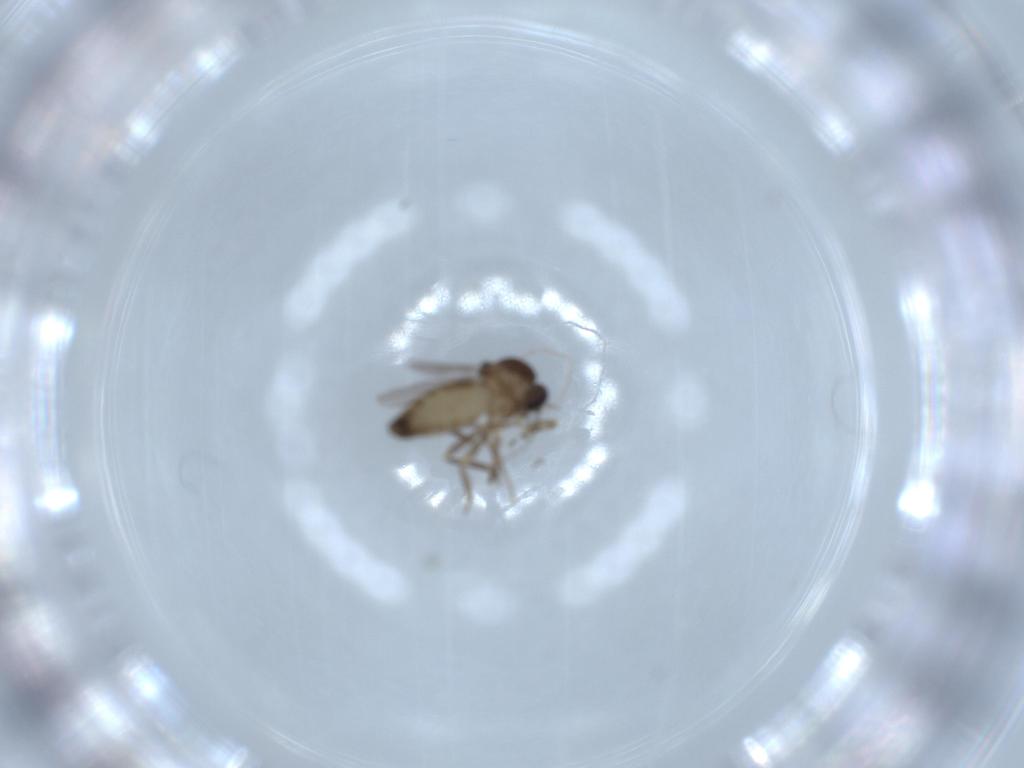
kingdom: Animalia
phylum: Arthropoda
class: Insecta
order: Diptera
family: Ceratopogonidae
